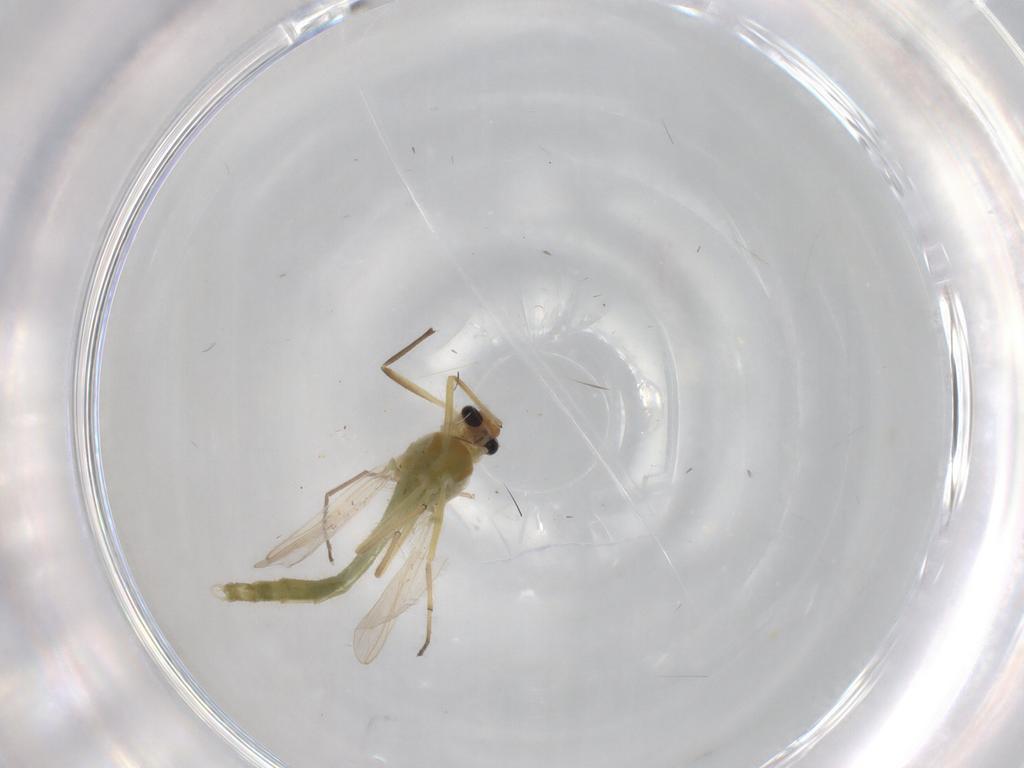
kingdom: Animalia
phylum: Arthropoda
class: Insecta
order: Diptera
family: Chironomidae
